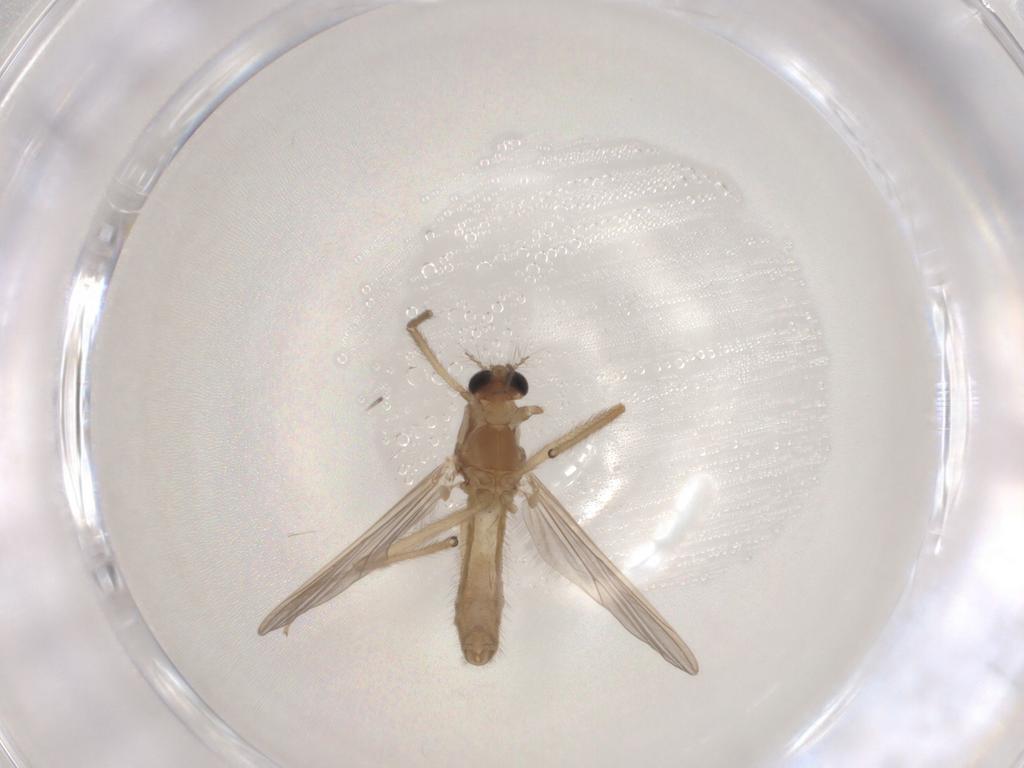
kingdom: Animalia
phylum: Arthropoda
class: Insecta
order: Diptera
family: Chironomidae
